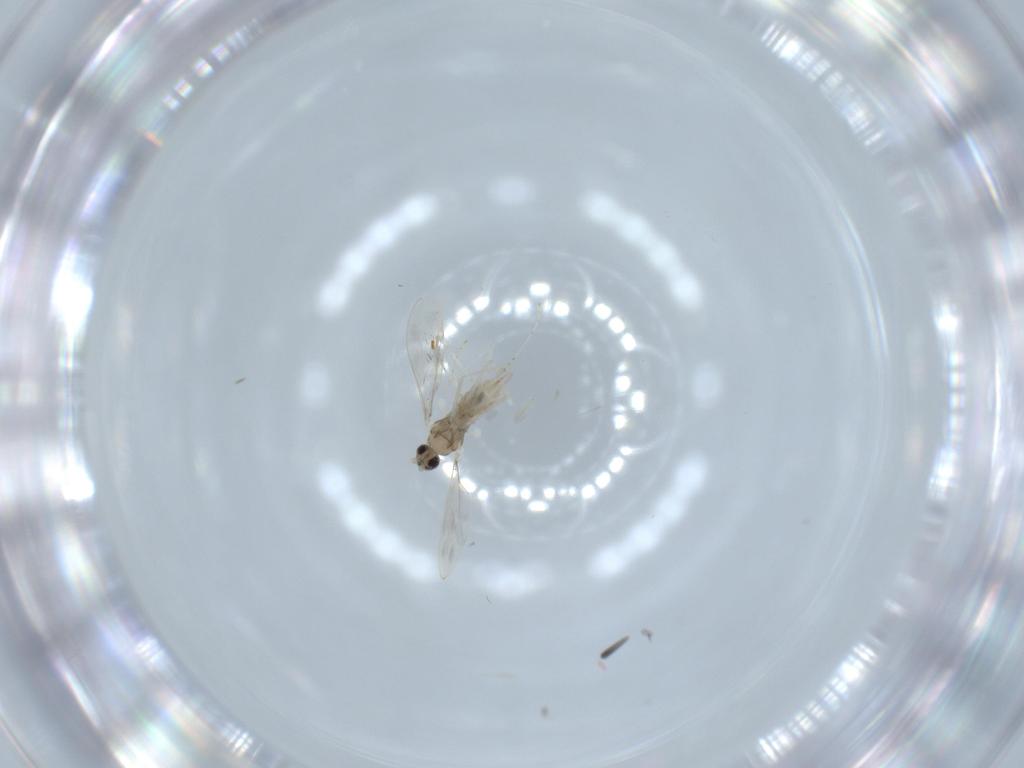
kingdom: Animalia
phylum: Arthropoda
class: Insecta
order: Diptera
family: Cecidomyiidae
